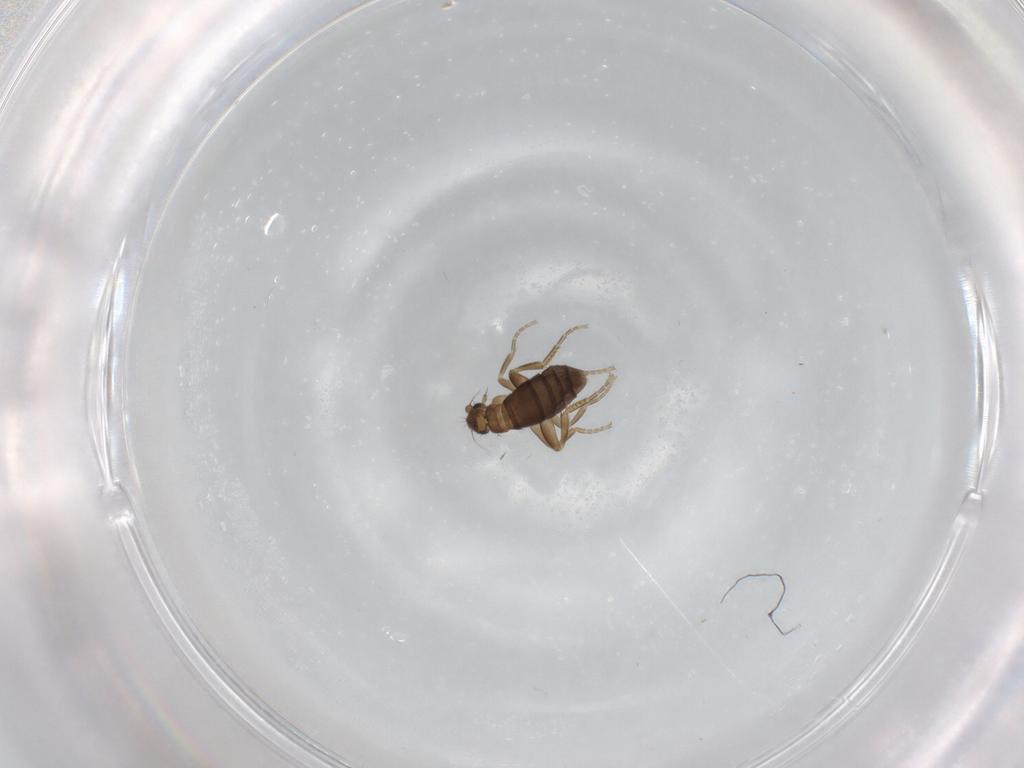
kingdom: Animalia
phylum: Arthropoda
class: Insecta
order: Diptera
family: Phoridae
